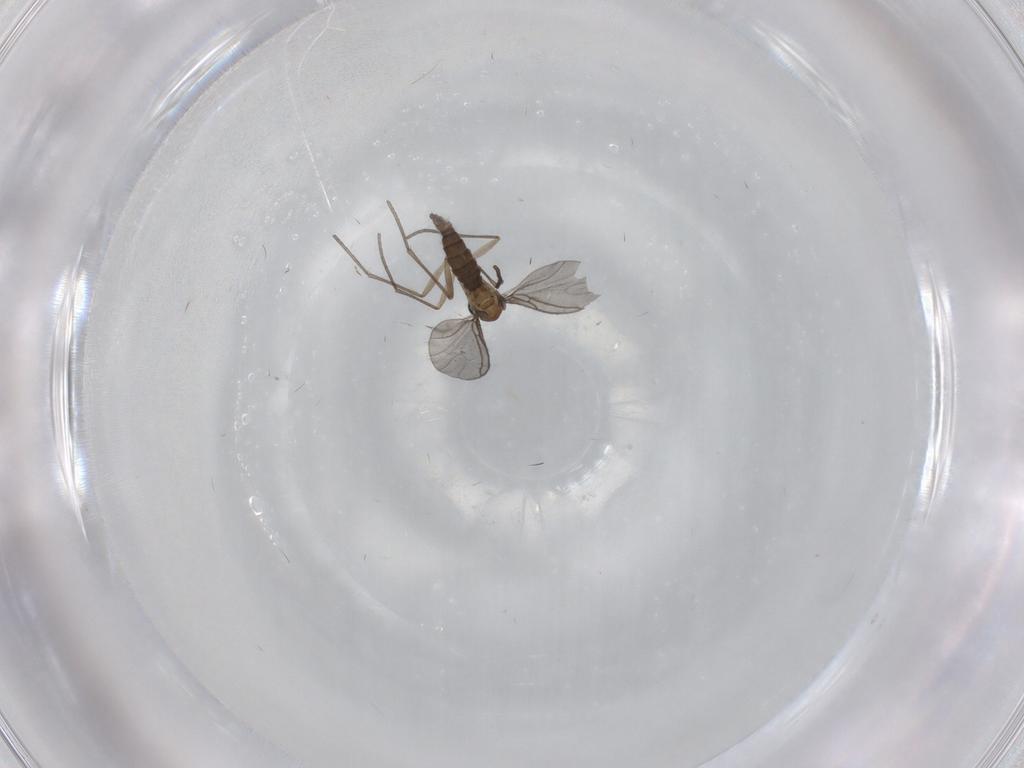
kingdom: Animalia
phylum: Arthropoda
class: Insecta
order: Diptera
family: Sciaridae
